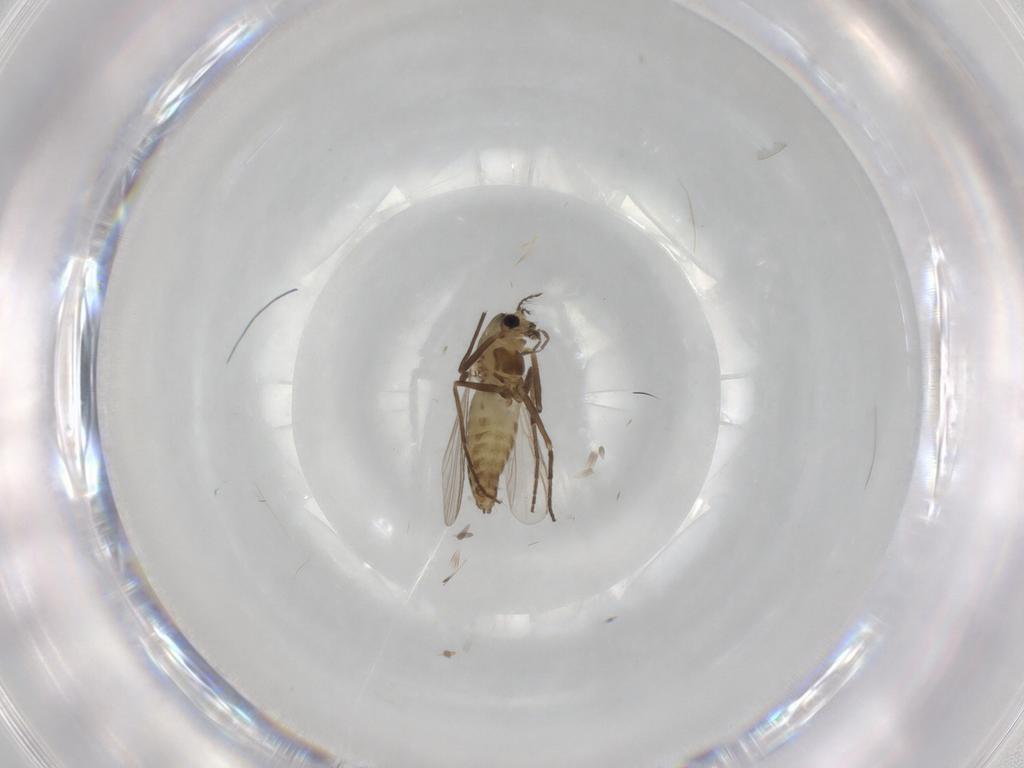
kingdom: Animalia
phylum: Arthropoda
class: Insecta
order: Diptera
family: Chironomidae
